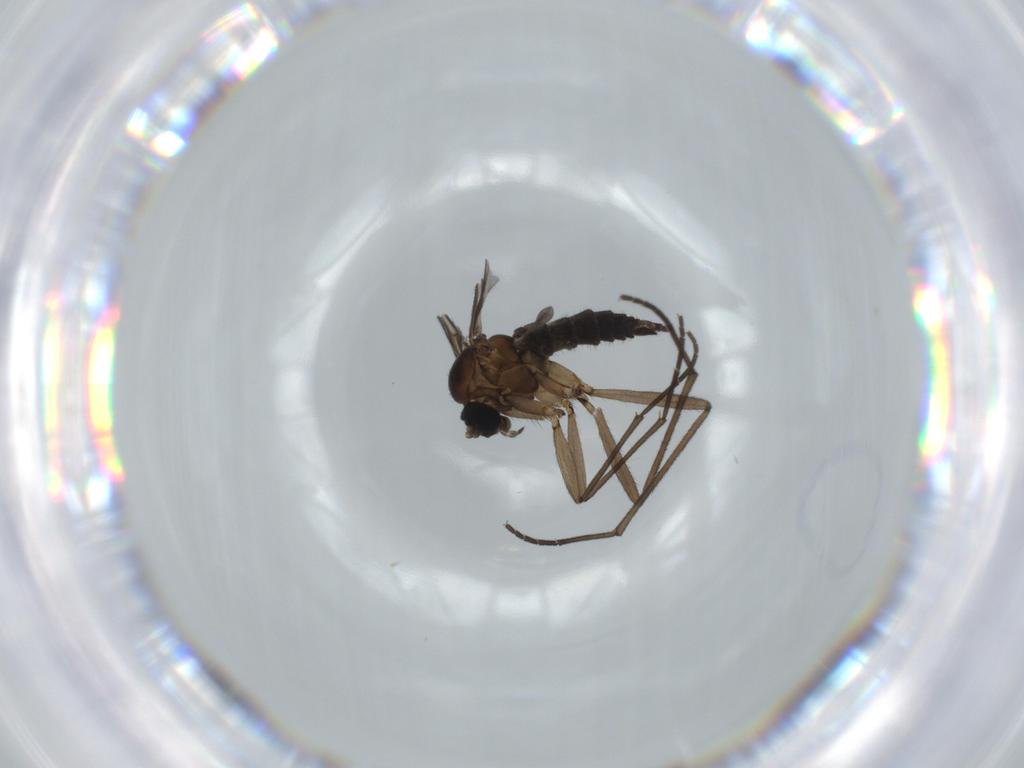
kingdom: Animalia
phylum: Arthropoda
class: Insecta
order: Diptera
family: Sciaridae
